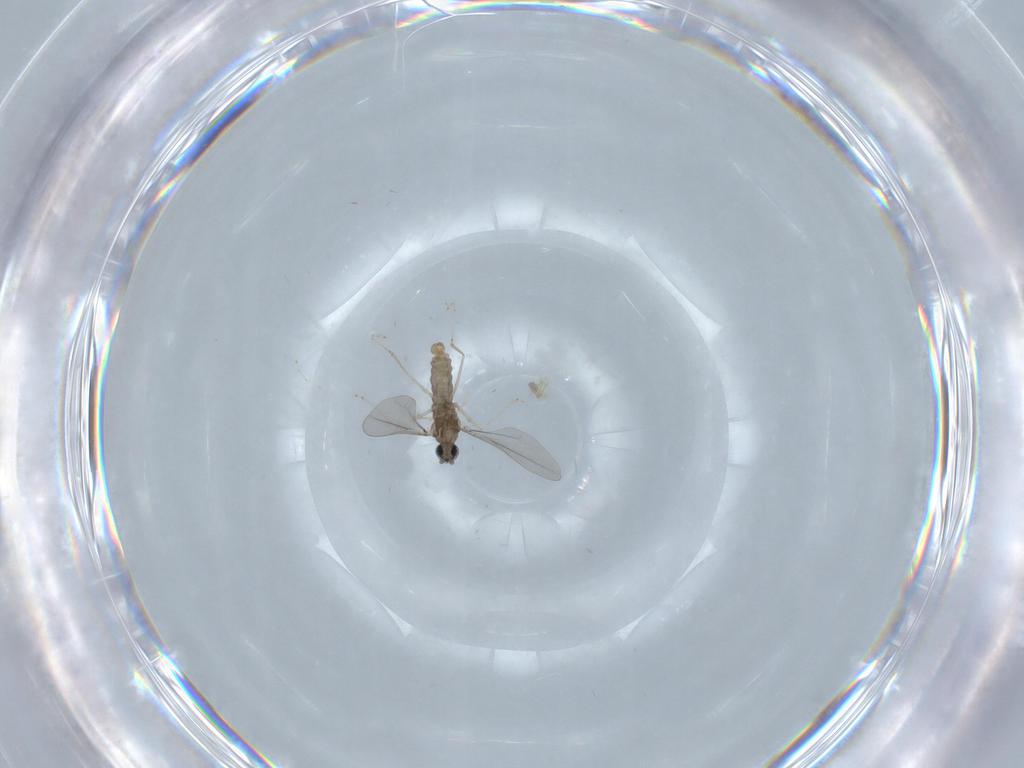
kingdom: Animalia
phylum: Arthropoda
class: Insecta
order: Diptera
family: Cecidomyiidae
